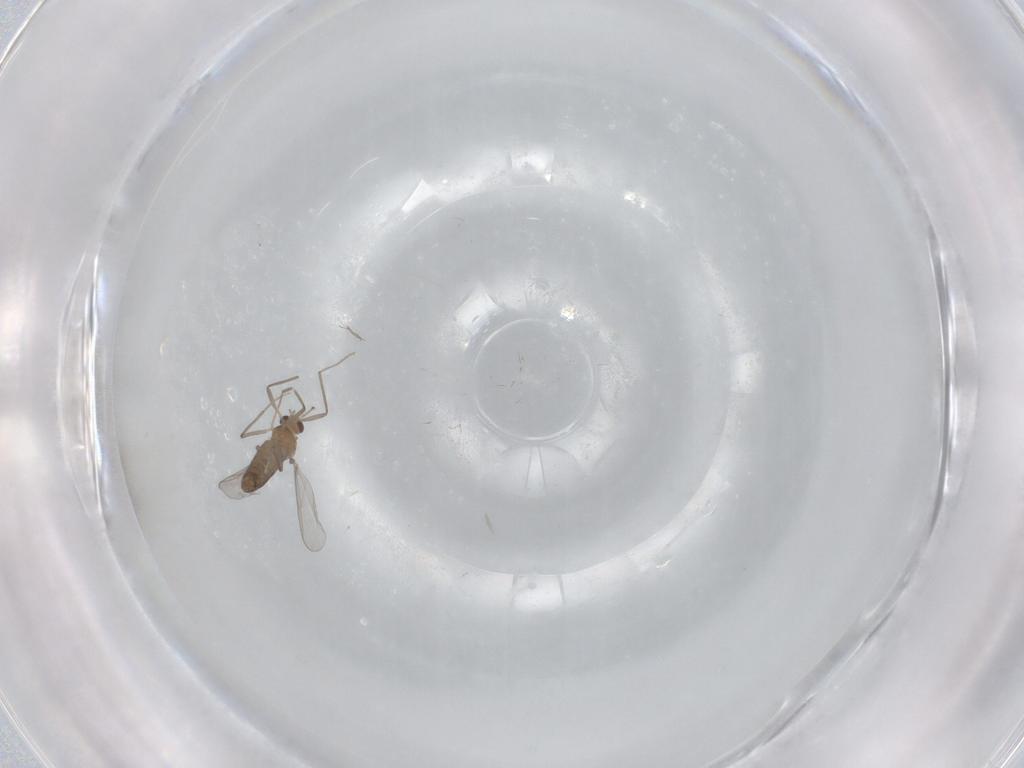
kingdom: Animalia
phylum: Arthropoda
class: Insecta
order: Diptera
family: Chironomidae
